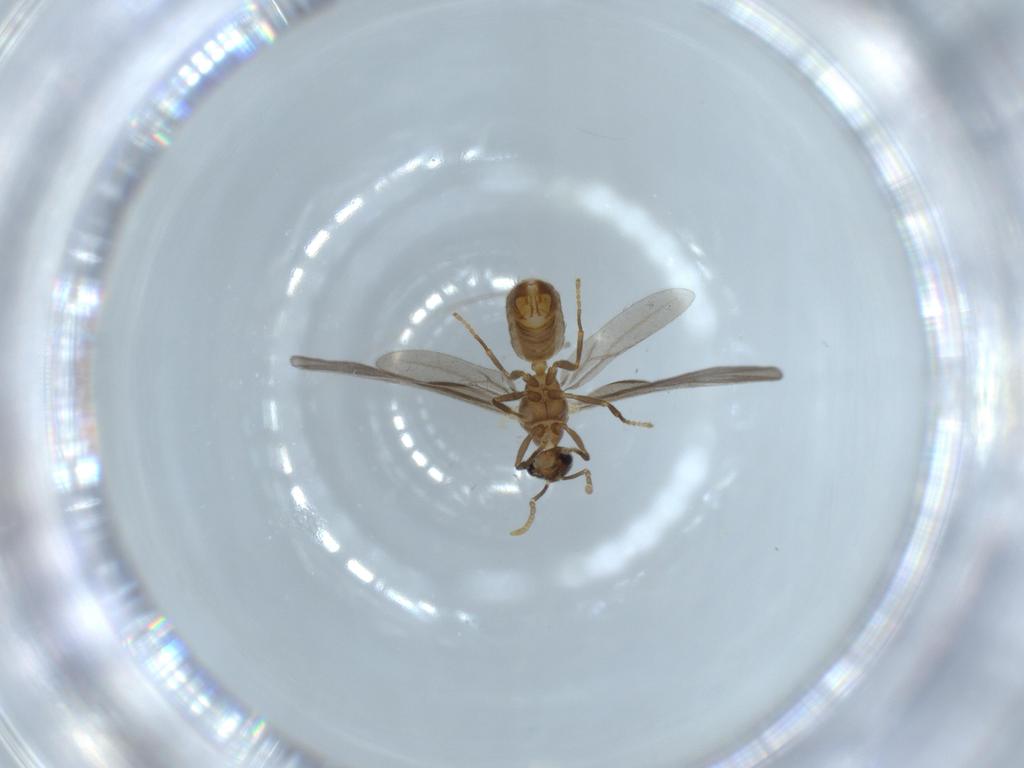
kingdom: Animalia
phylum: Arthropoda
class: Insecta
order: Hymenoptera
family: Formicidae
